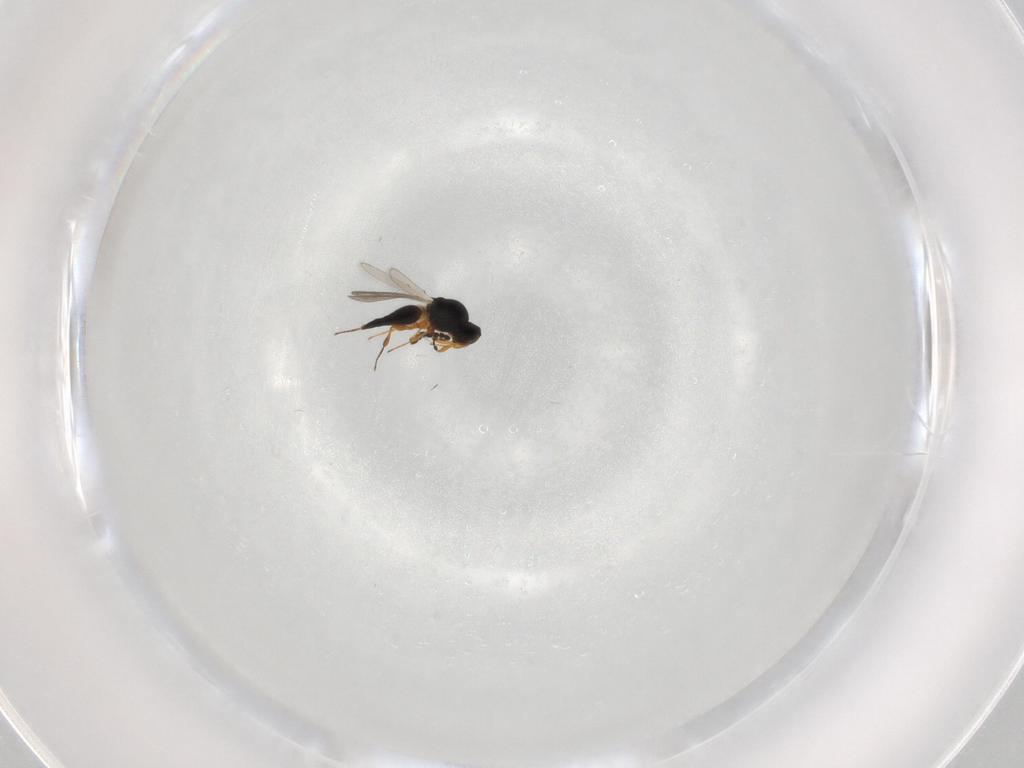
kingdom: Animalia
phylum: Arthropoda
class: Insecta
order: Hymenoptera
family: Platygastridae
